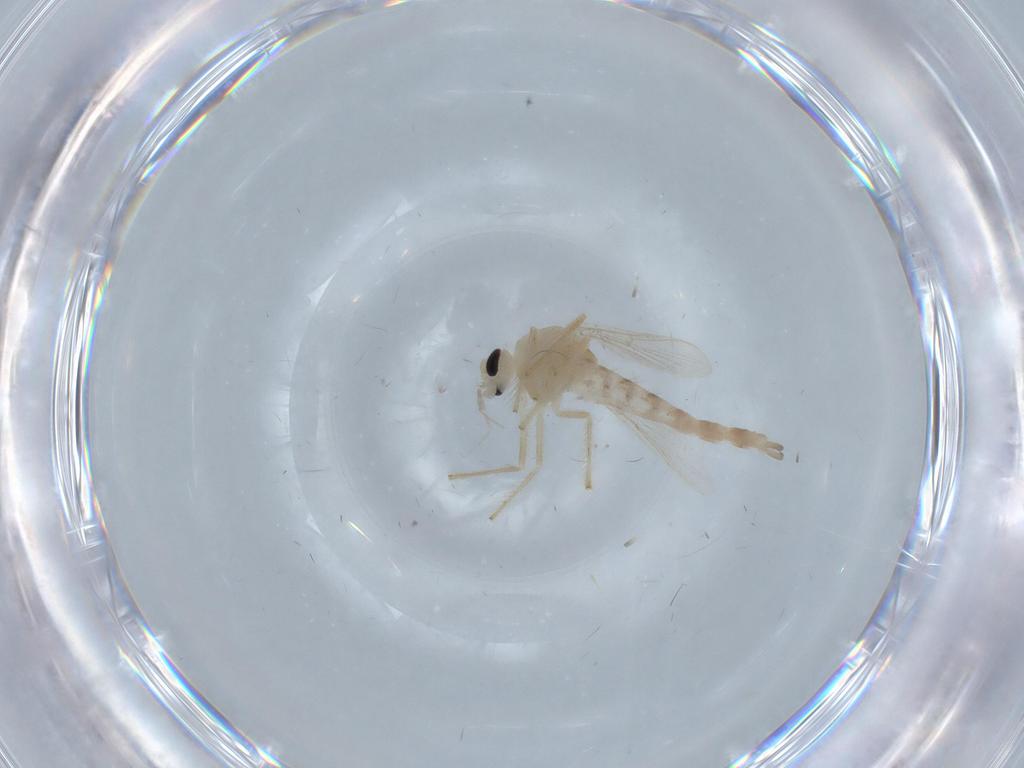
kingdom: Animalia
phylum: Arthropoda
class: Insecta
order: Diptera
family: Chironomidae
